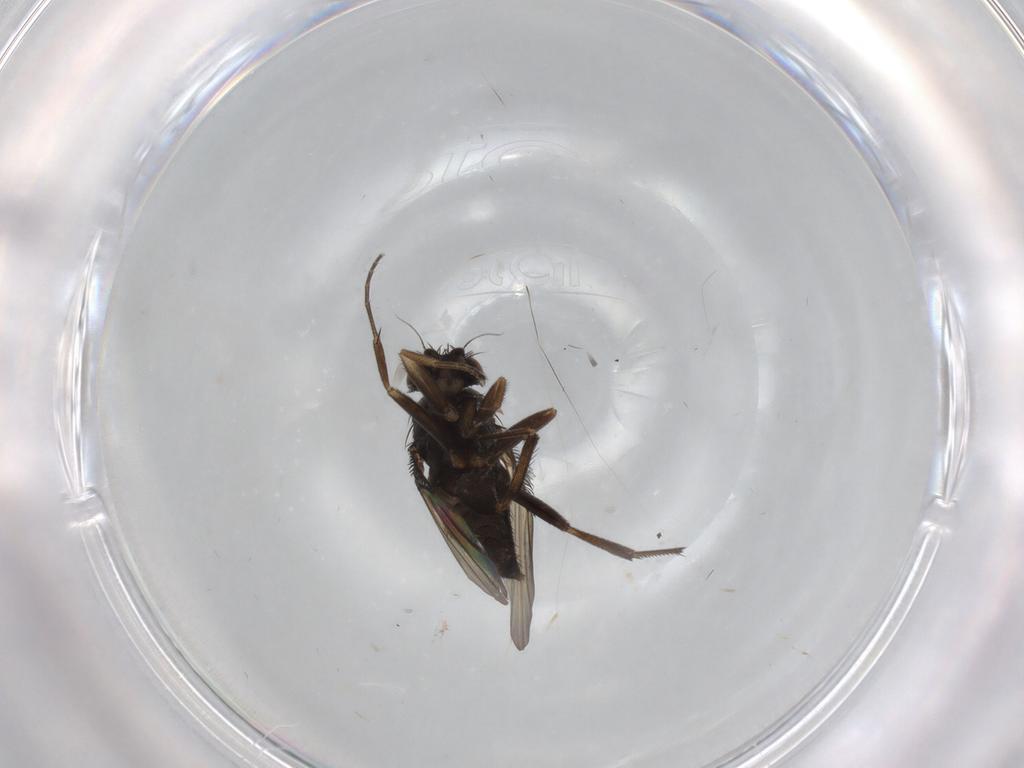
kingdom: Animalia
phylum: Arthropoda
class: Insecta
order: Diptera
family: Phoridae
